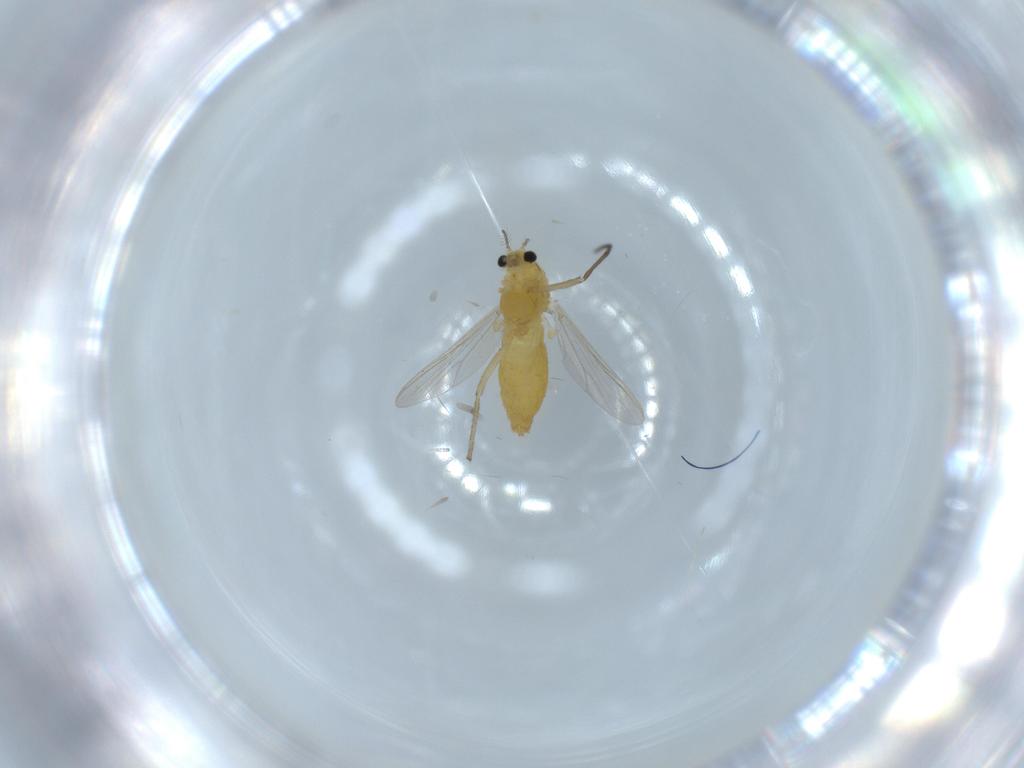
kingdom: Animalia
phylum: Arthropoda
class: Insecta
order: Diptera
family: Chironomidae
